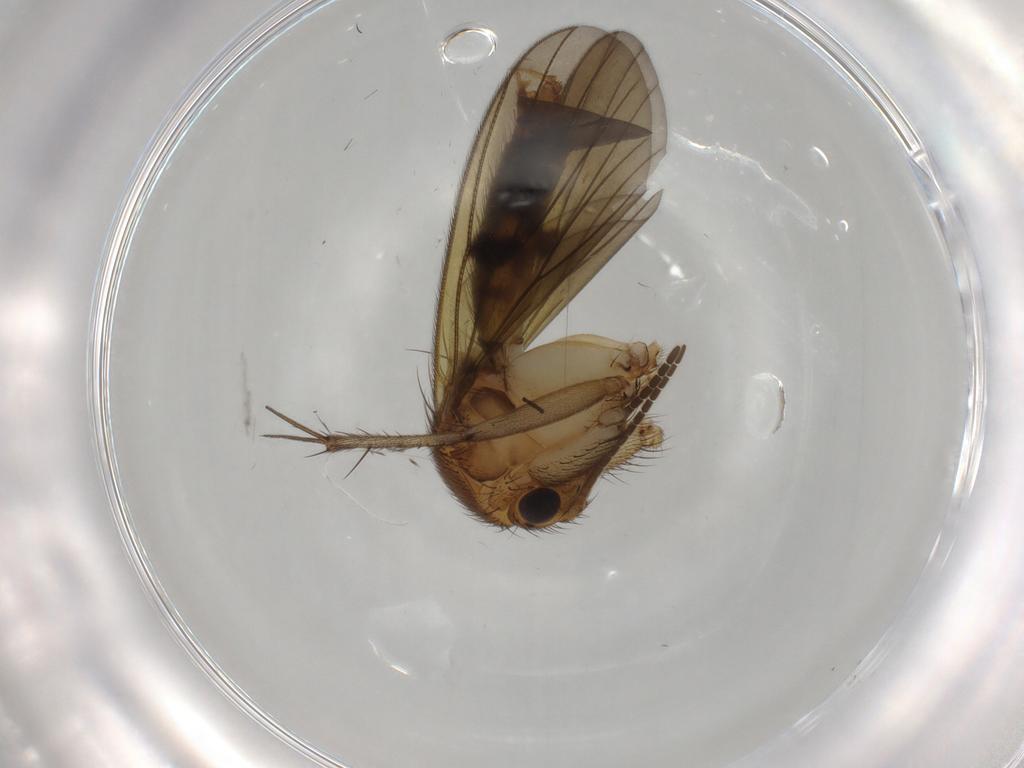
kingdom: Animalia
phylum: Arthropoda
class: Insecta
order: Diptera
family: Mycetophilidae
